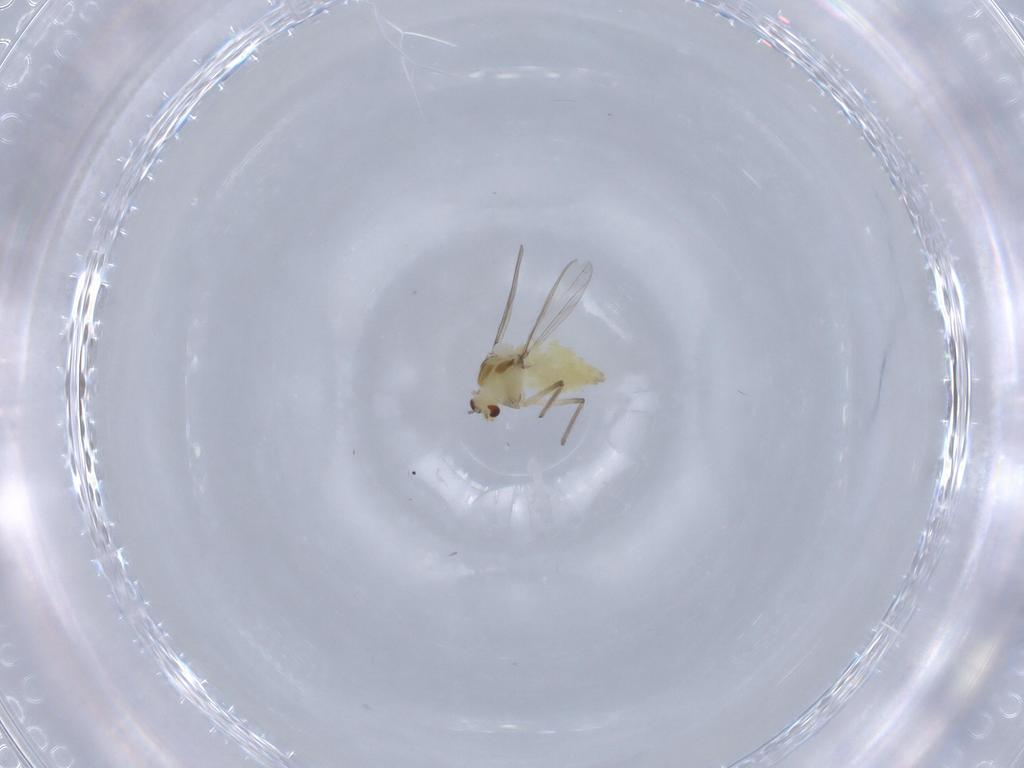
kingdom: Animalia
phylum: Arthropoda
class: Insecta
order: Diptera
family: Chironomidae
